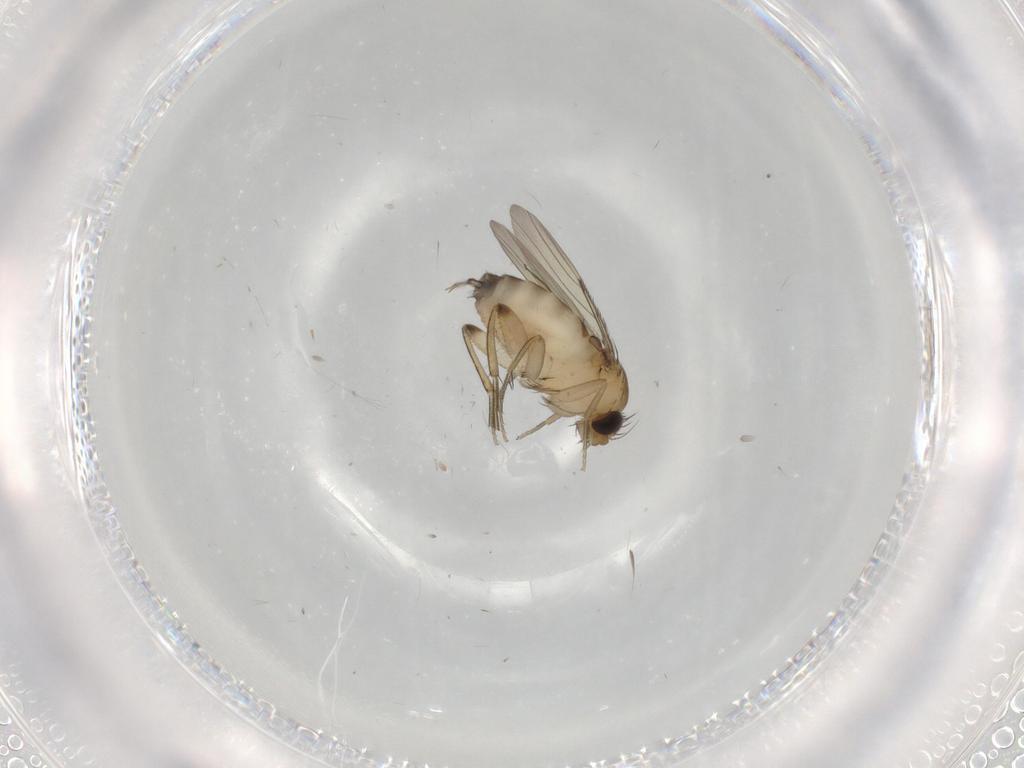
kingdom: Animalia
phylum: Arthropoda
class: Insecta
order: Diptera
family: Phoridae
